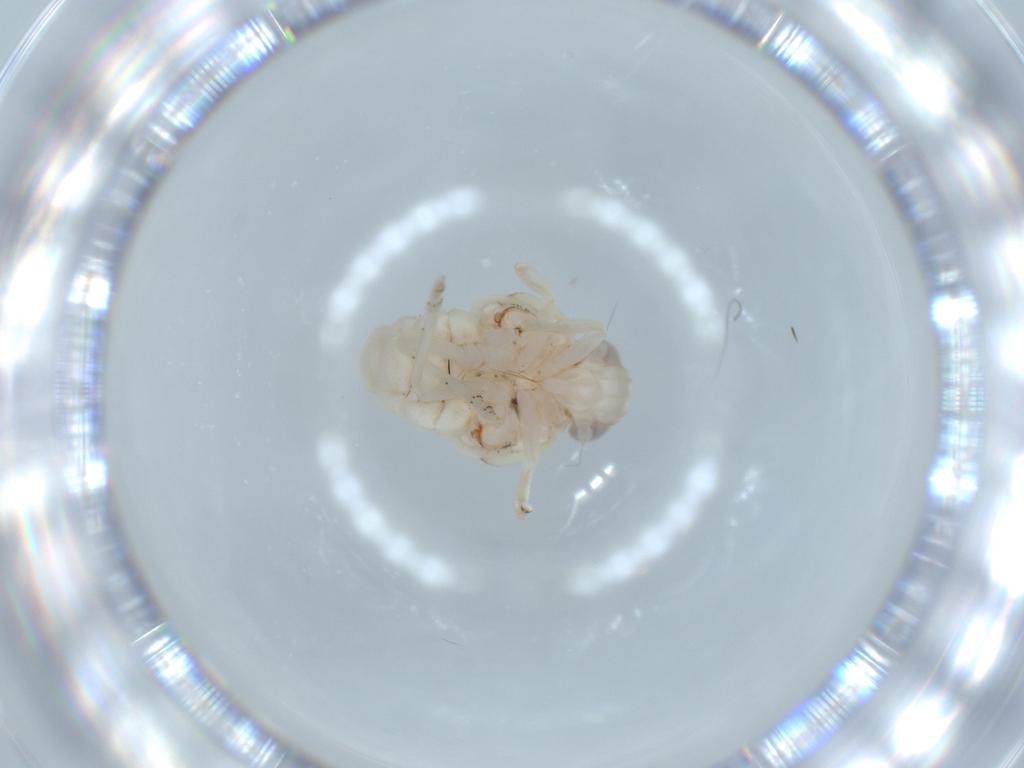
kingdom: Animalia
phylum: Arthropoda
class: Insecta
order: Hemiptera
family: Nogodinidae
